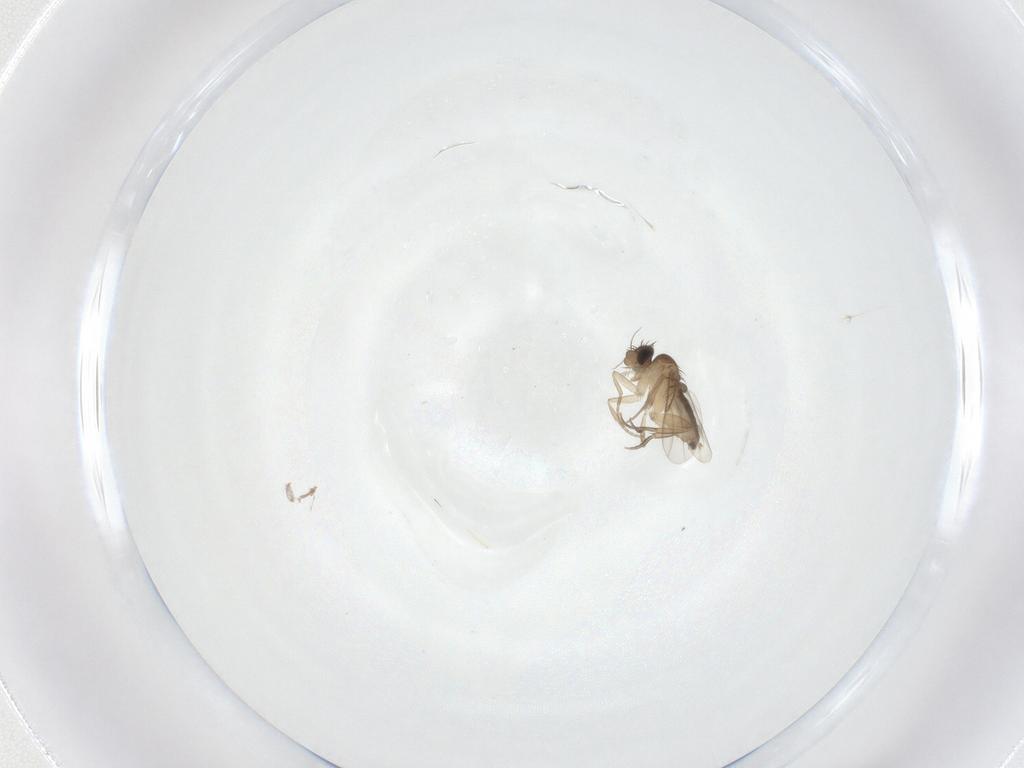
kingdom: Animalia
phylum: Arthropoda
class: Insecta
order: Diptera
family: Phoridae
